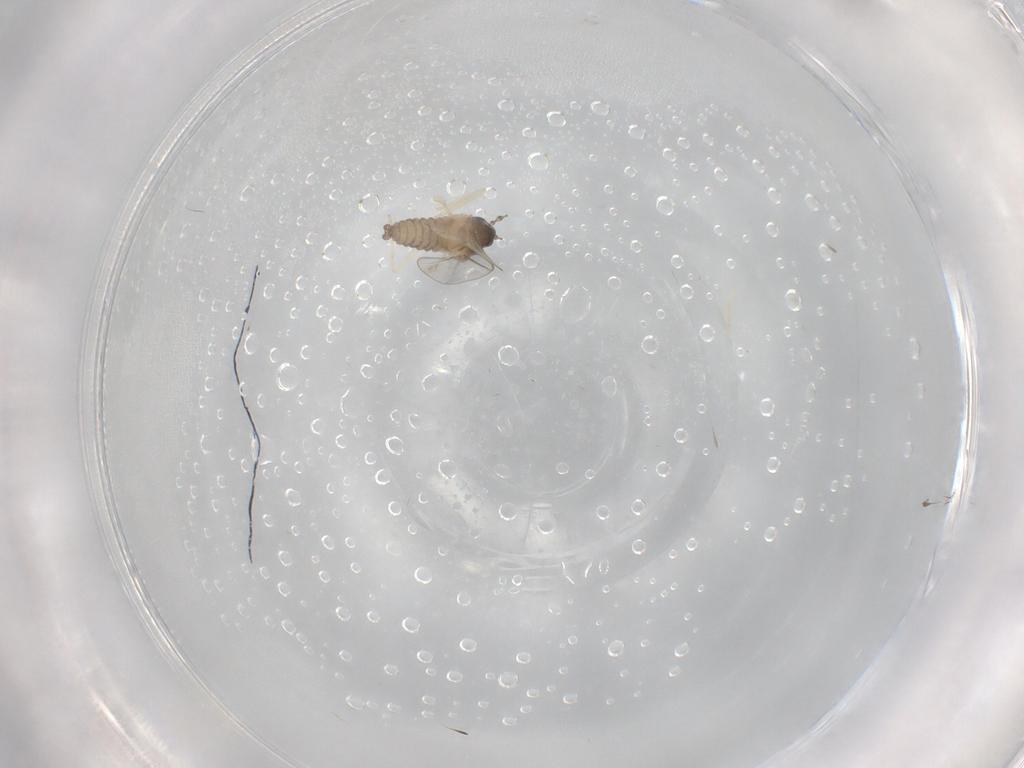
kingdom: Animalia
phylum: Arthropoda
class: Insecta
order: Diptera
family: Cecidomyiidae
